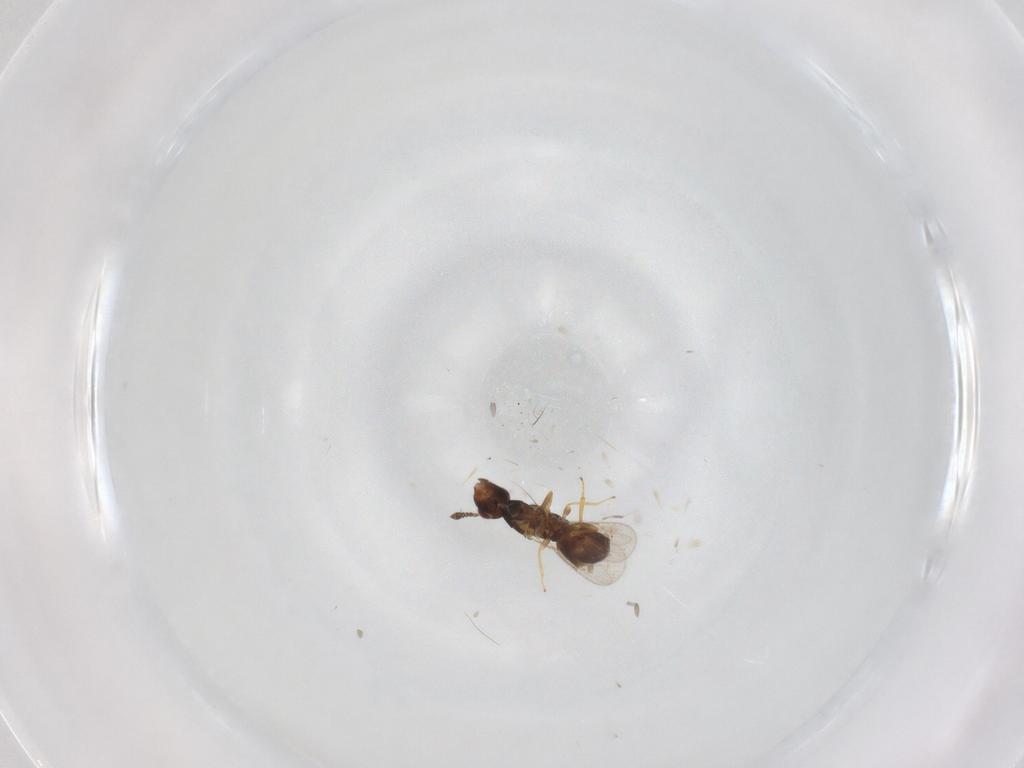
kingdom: Animalia
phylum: Arthropoda
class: Insecta
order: Hymenoptera
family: Eulophidae
